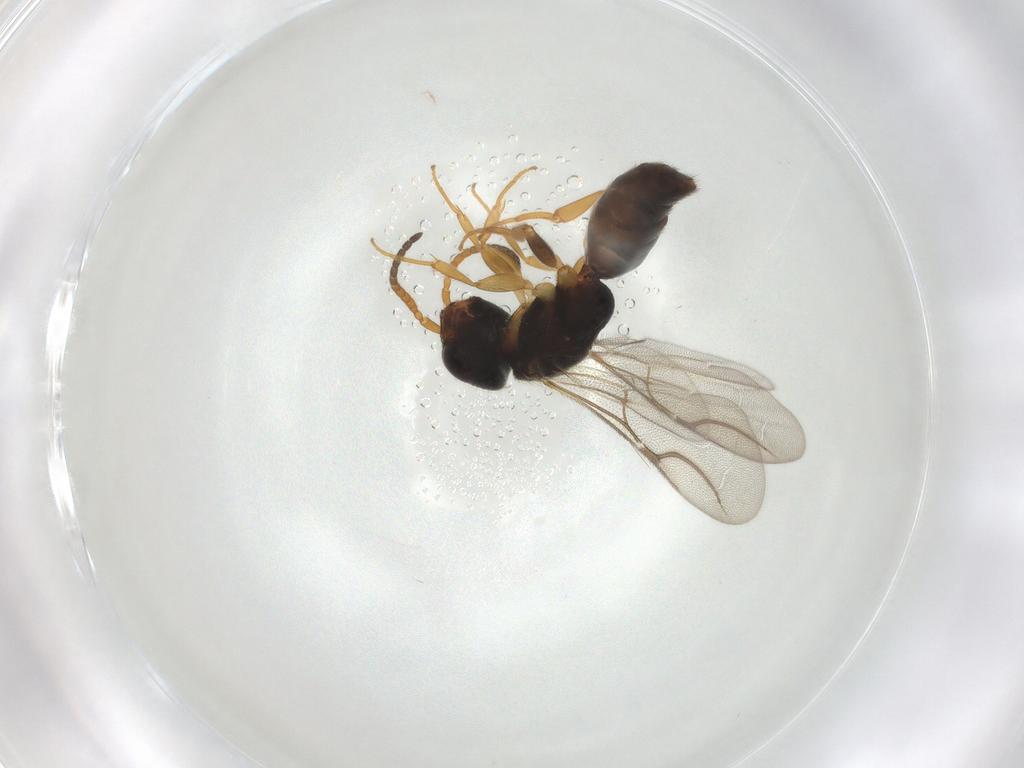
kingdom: Animalia
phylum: Arthropoda
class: Insecta
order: Hymenoptera
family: Bethylidae
